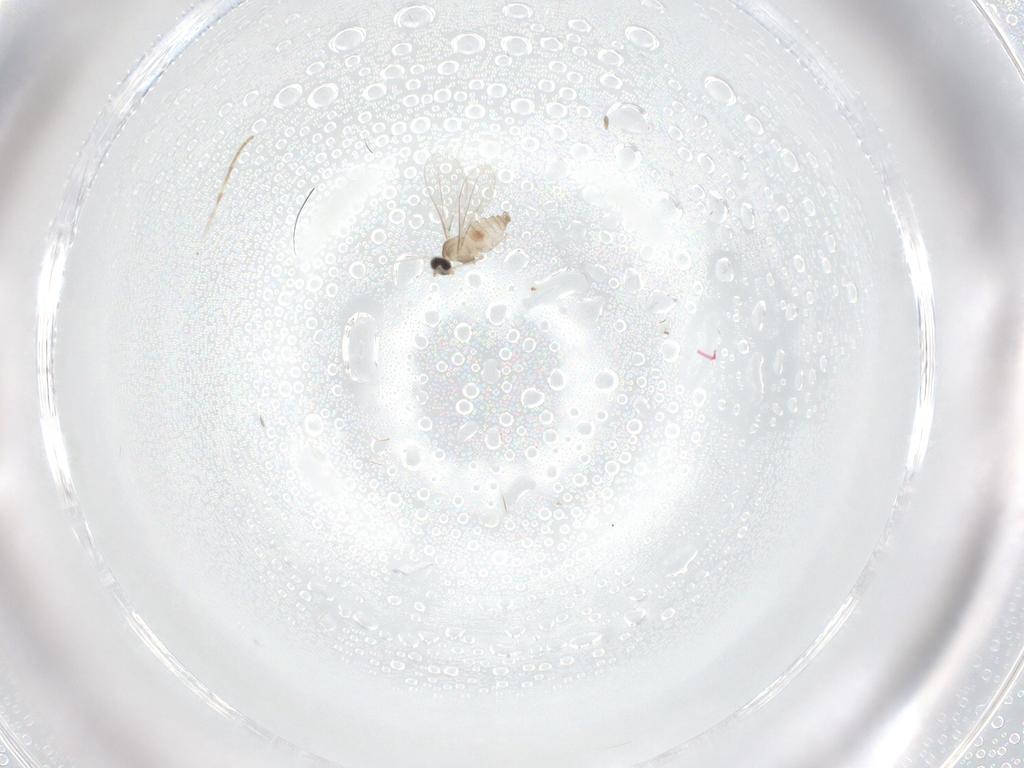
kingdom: Animalia
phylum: Arthropoda
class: Insecta
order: Diptera
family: Cecidomyiidae
